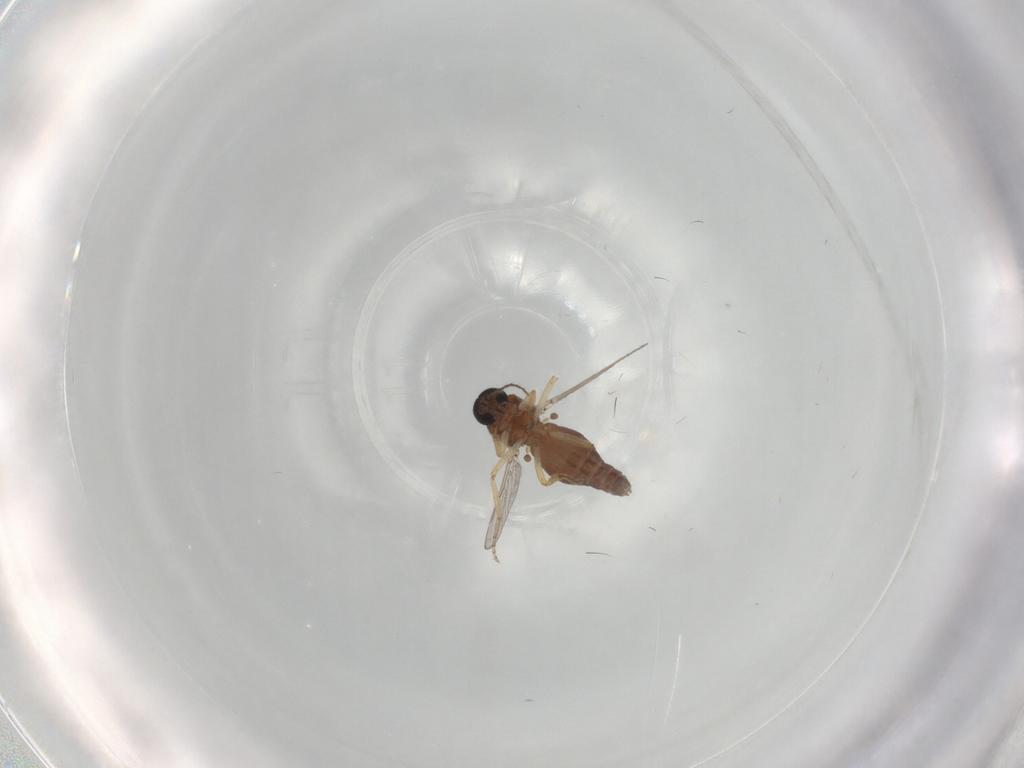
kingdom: Animalia
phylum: Arthropoda
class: Insecta
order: Diptera
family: Ceratopogonidae
